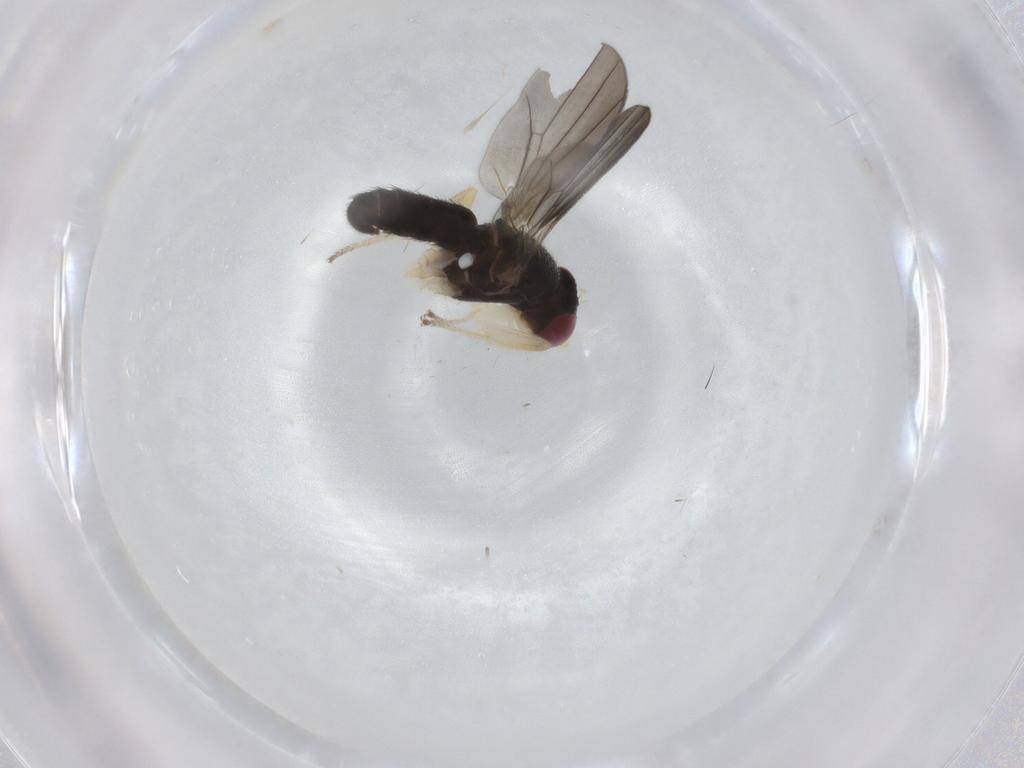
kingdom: Animalia
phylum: Arthropoda
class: Insecta
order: Diptera
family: Clusiidae
